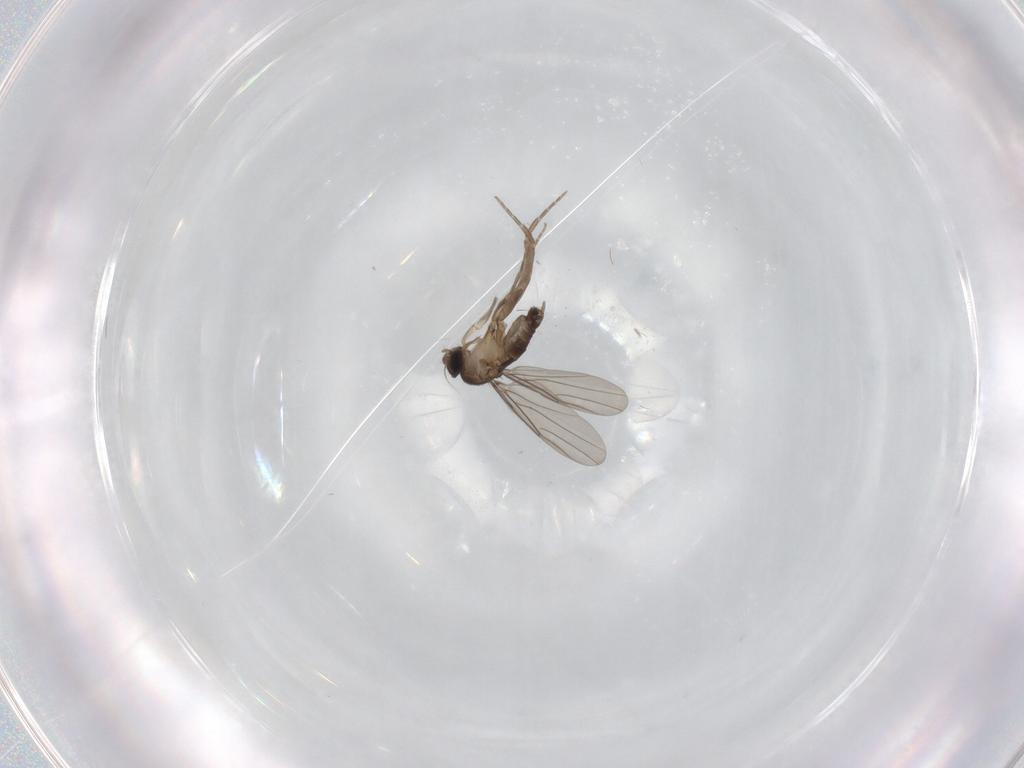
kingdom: Animalia
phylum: Arthropoda
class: Insecta
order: Diptera
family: Phoridae
